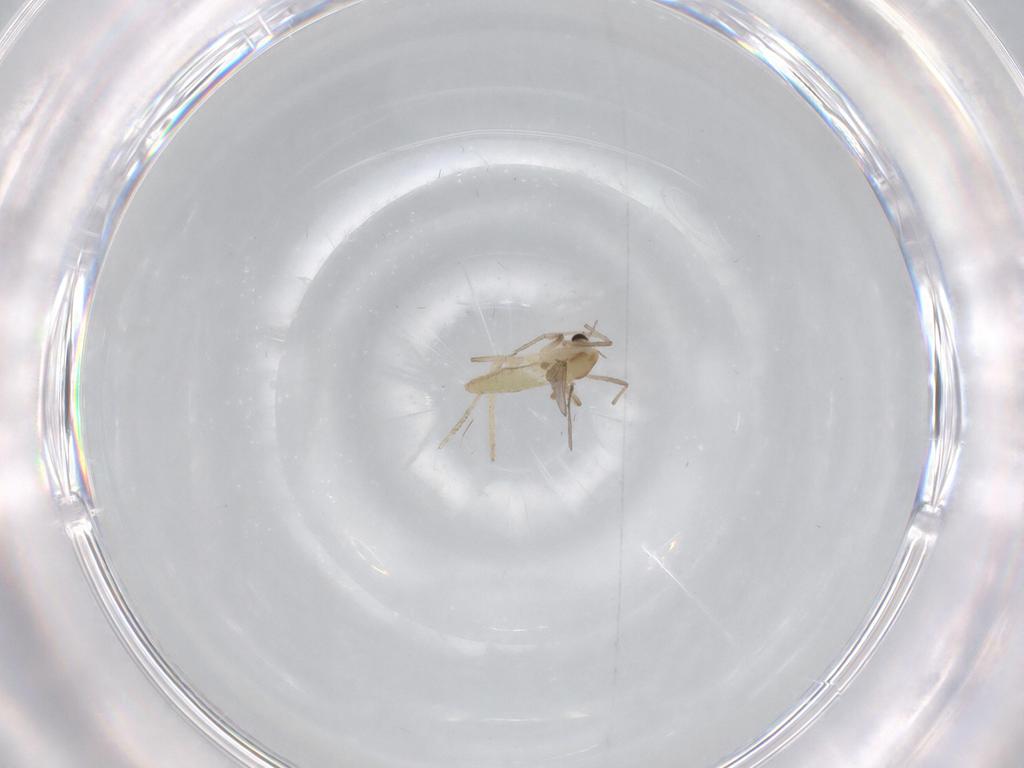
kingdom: Animalia
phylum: Arthropoda
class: Insecta
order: Diptera
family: Chironomidae
